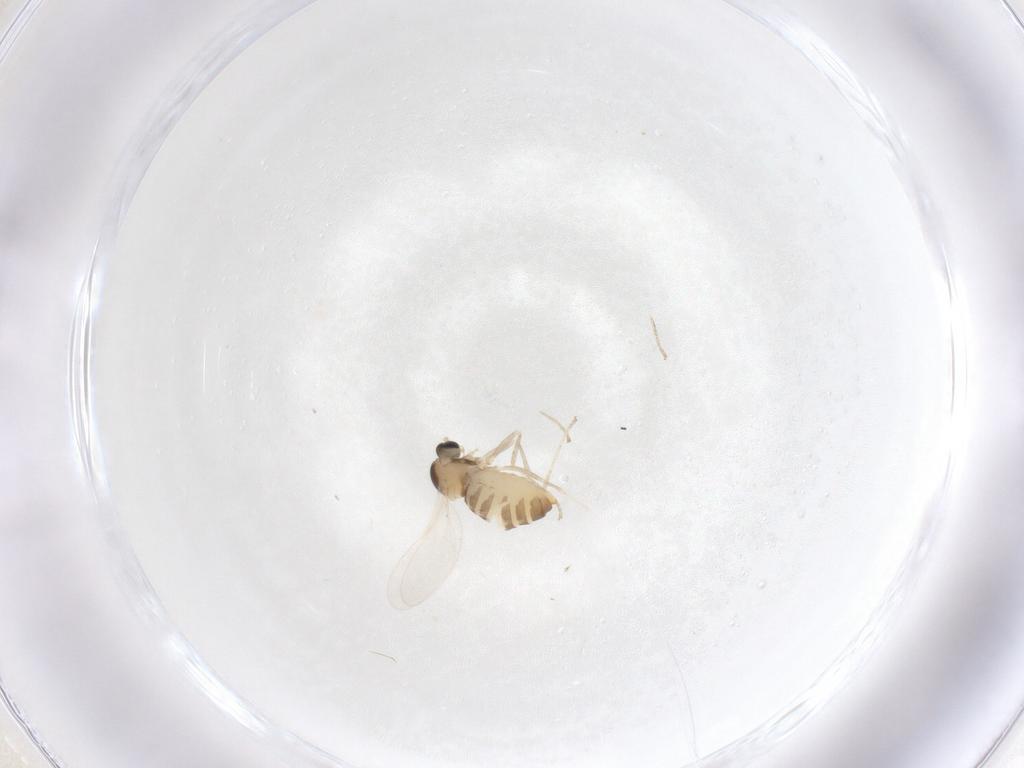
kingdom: Animalia
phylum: Arthropoda
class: Insecta
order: Diptera
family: Cecidomyiidae
